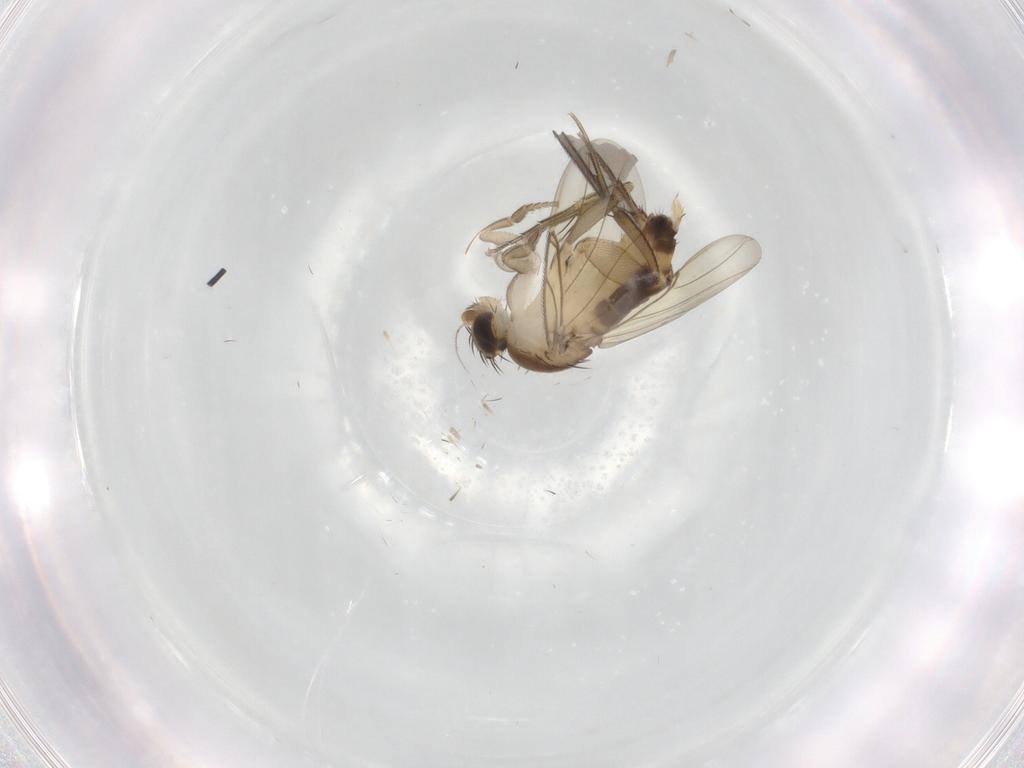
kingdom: Animalia
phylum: Arthropoda
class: Insecta
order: Diptera
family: Phoridae
